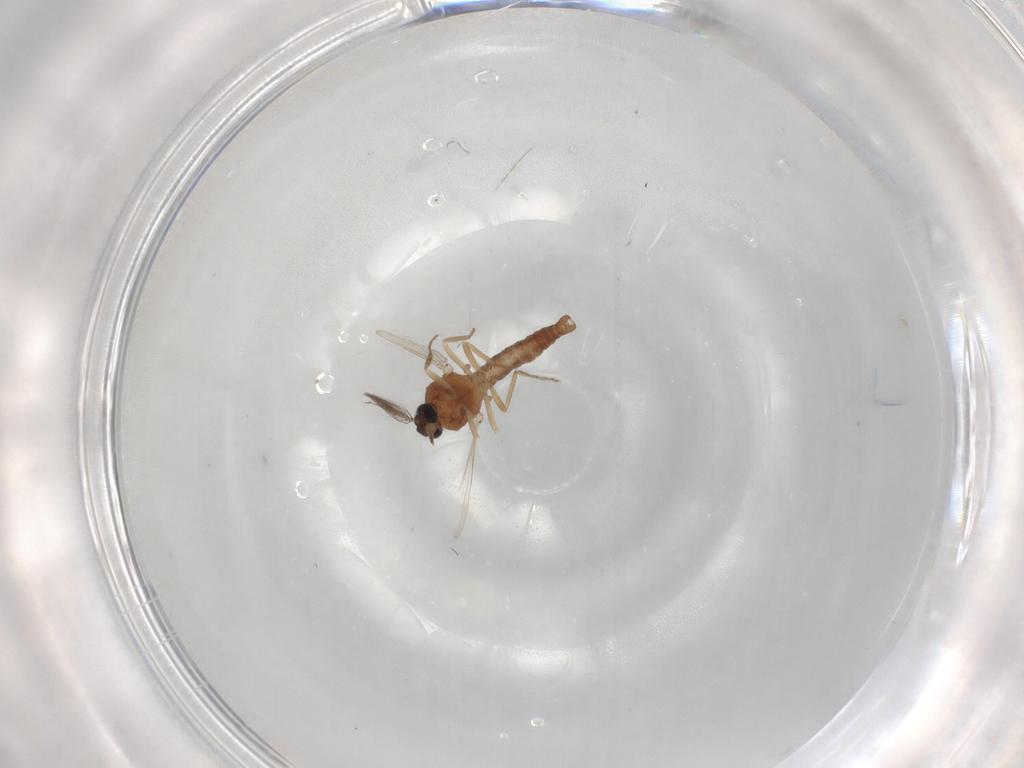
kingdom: Animalia
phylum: Arthropoda
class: Insecta
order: Diptera
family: Ceratopogonidae
